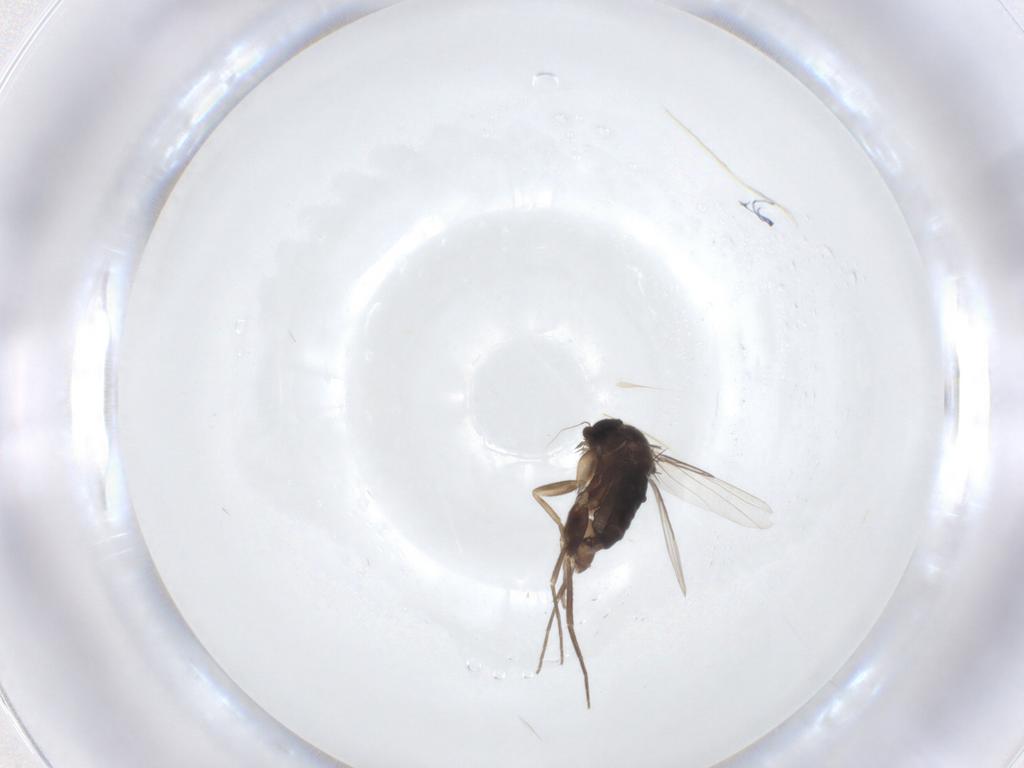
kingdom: Animalia
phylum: Arthropoda
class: Insecta
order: Diptera
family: Phoridae
